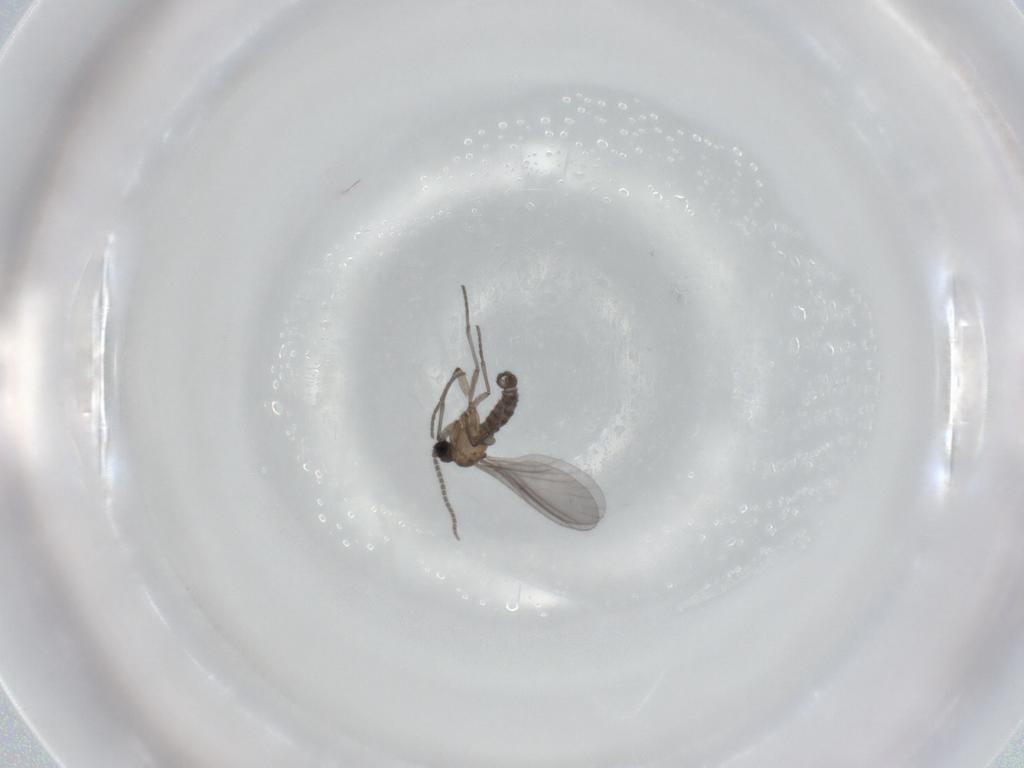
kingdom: Animalia
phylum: Arthropoda
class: Insecta
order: Diptera
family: Sciaridae
